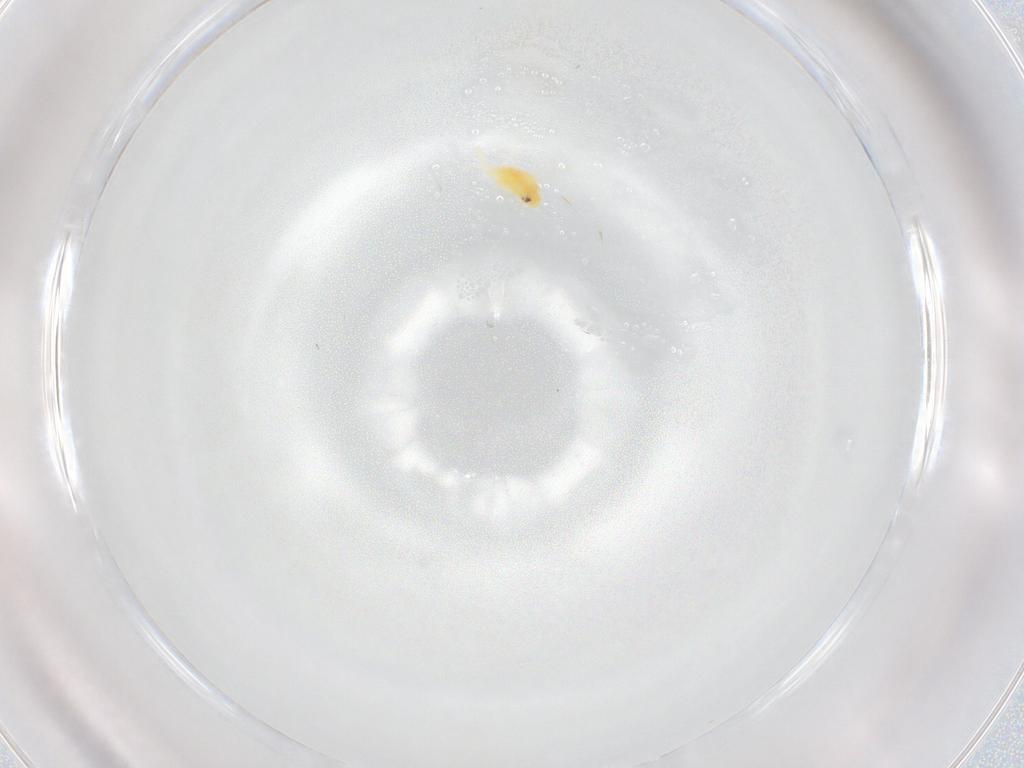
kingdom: Animalia
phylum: Arthropoda
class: Insecta
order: Hemiptera
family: Aleyrodidae
